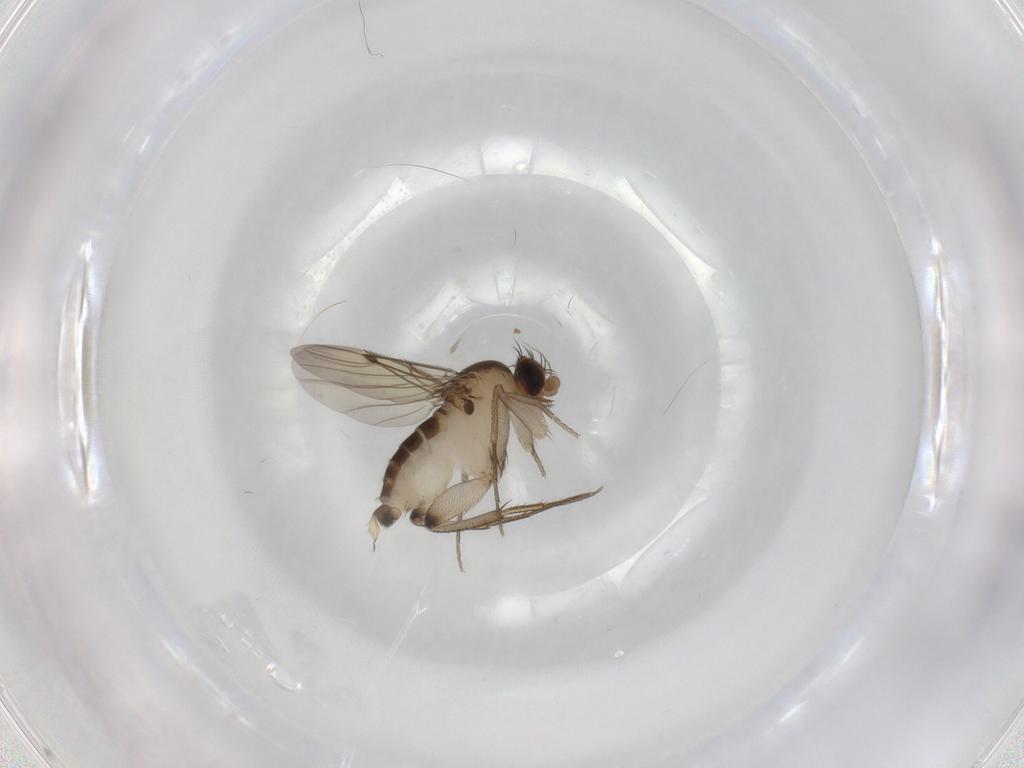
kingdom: Animalia
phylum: Arthropoda
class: Insecta
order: Diptera
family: Phoridae
